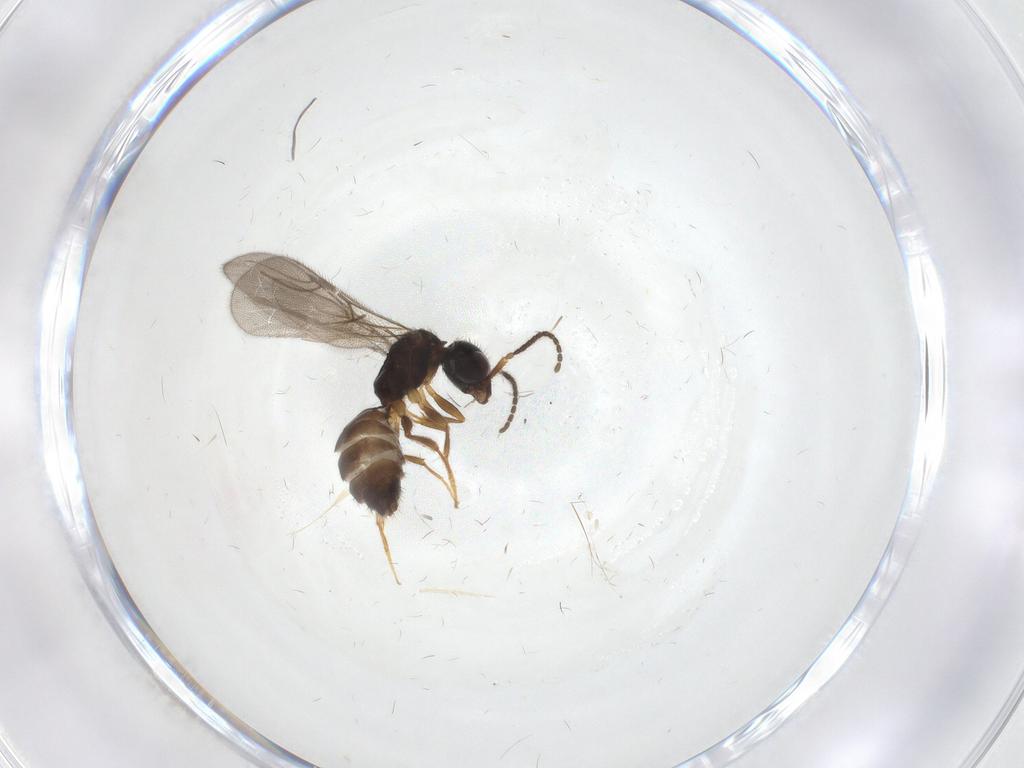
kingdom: Animalia
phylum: Arthropoda
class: Insecta
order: Hymenoptera
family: Bethylidae
